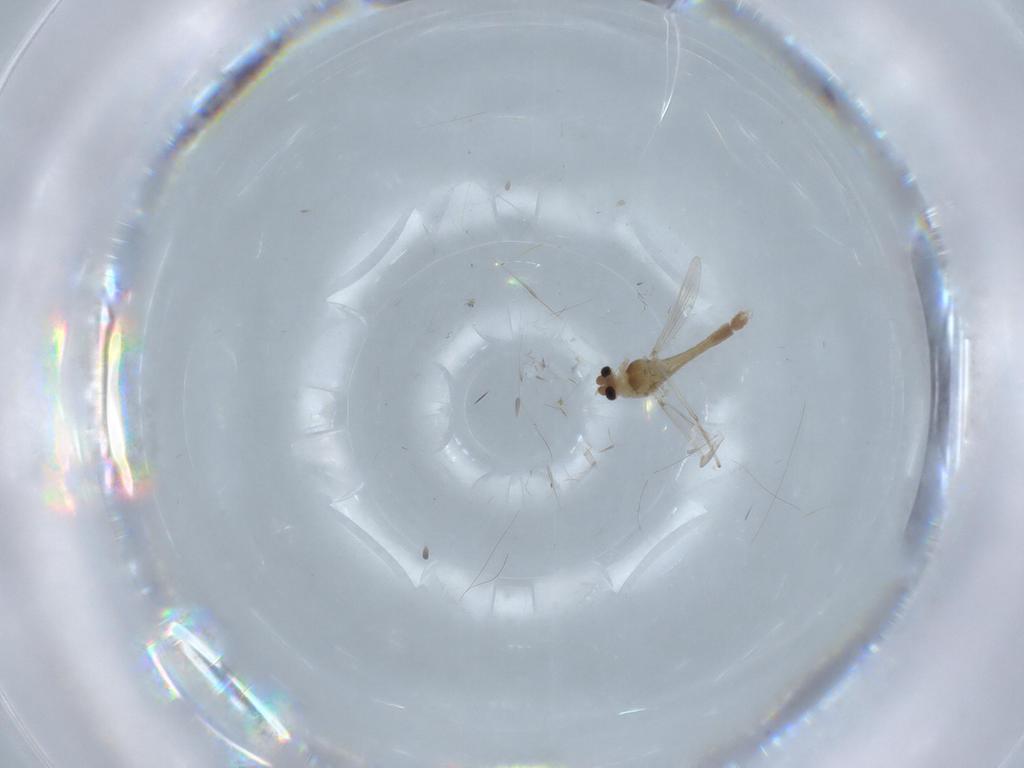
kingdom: Animalia
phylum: Arthropoda
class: Insecta
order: Diptera
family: Chironomidae
